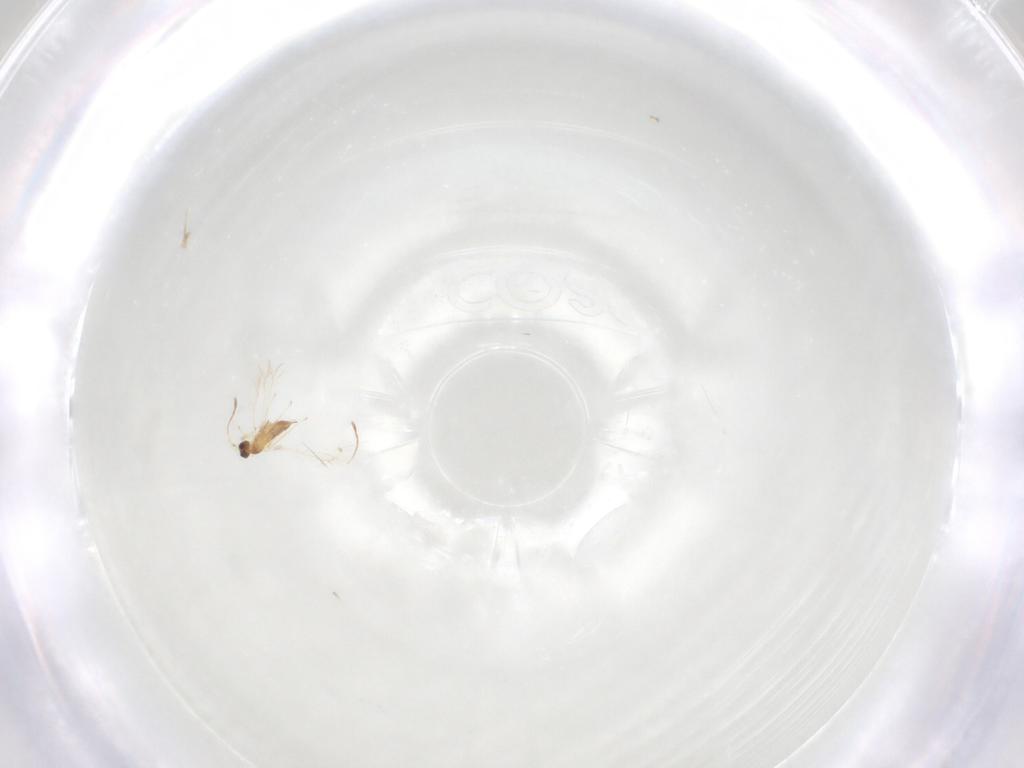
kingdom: Animalia
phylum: Arthropoda
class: Insecta
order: Hymenoptera
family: Mymaridae
